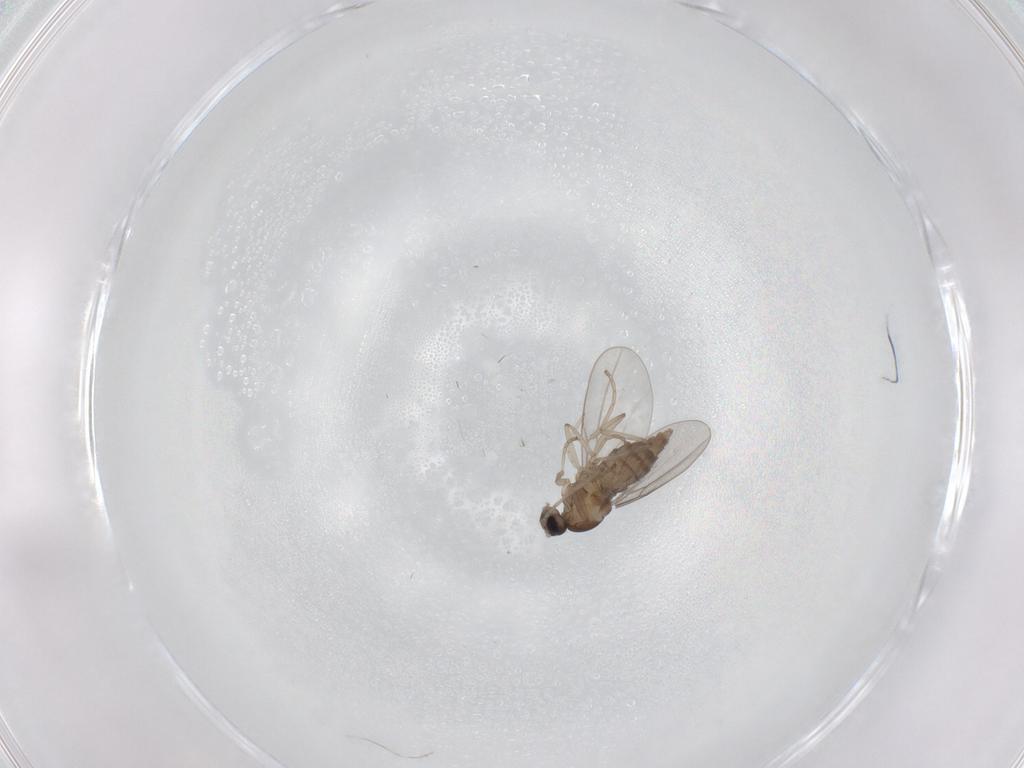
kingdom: Animalia
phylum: Arthropoda
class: Insecta
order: Diptera
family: Cecidomyiidae
